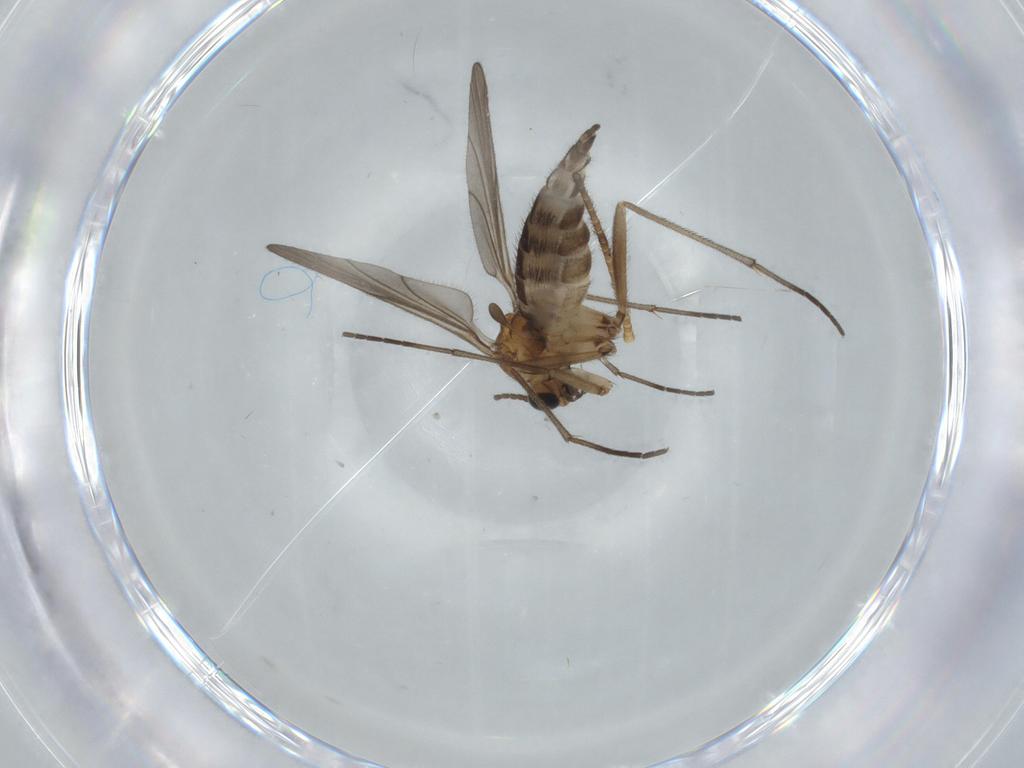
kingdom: Animalia
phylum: Arthropoda
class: Insecta
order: Diptera
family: Sciaridae
